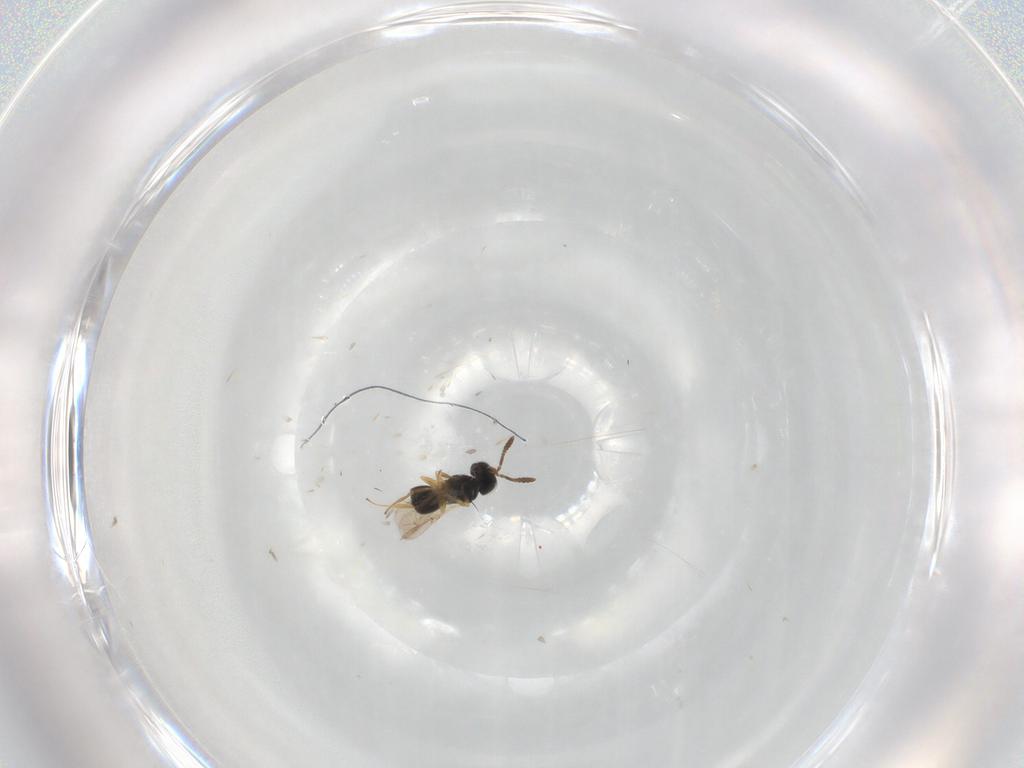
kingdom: Animalia
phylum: Arthropoda
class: Insecta
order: Hymenoptera
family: Scelionidae
